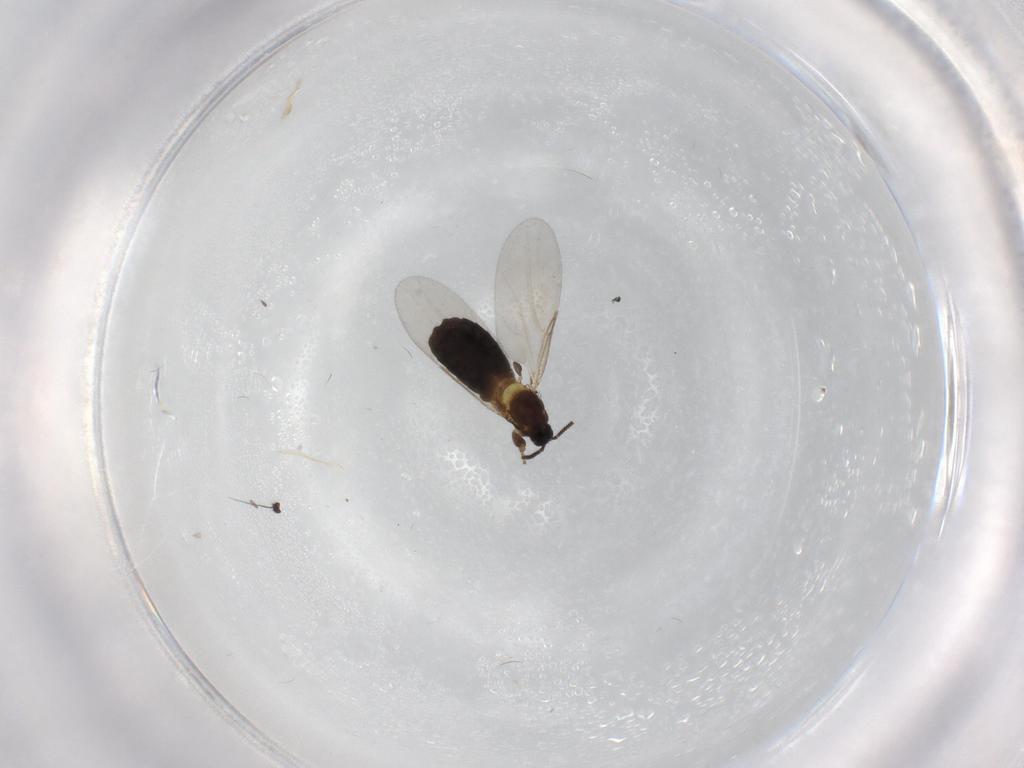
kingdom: Animalia
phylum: Arthropoda
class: Insecta
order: Diptera
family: Scatopsidae
